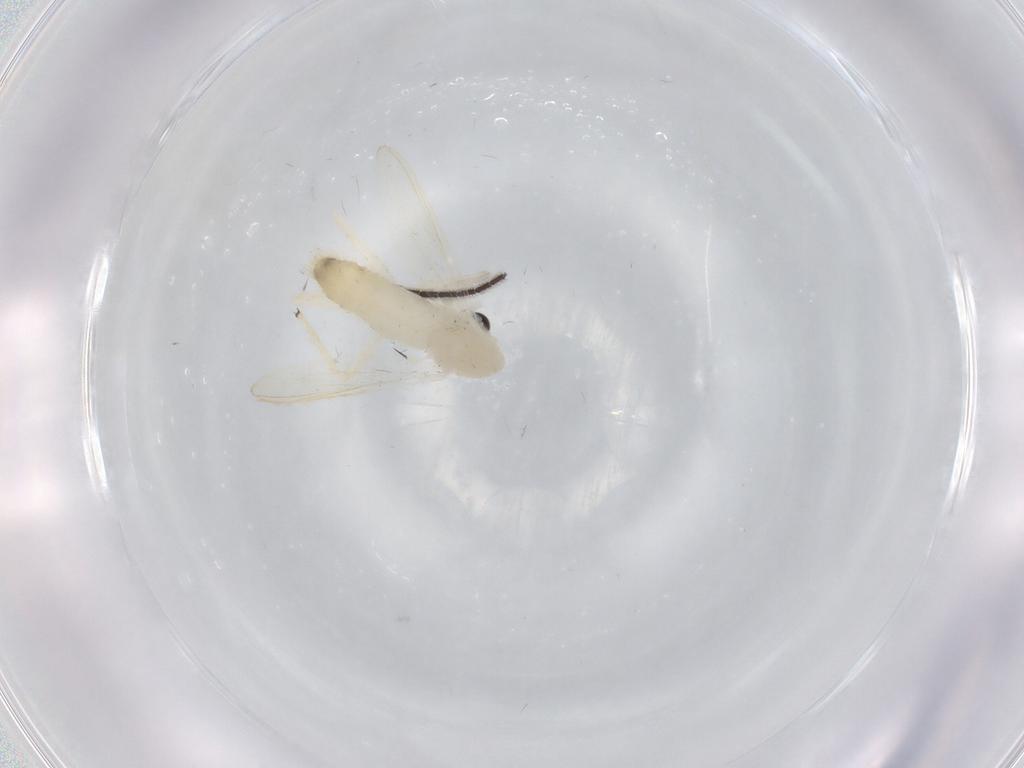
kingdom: Animalia
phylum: Arthropoda
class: Insecta
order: Diptera
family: Chironomidae
